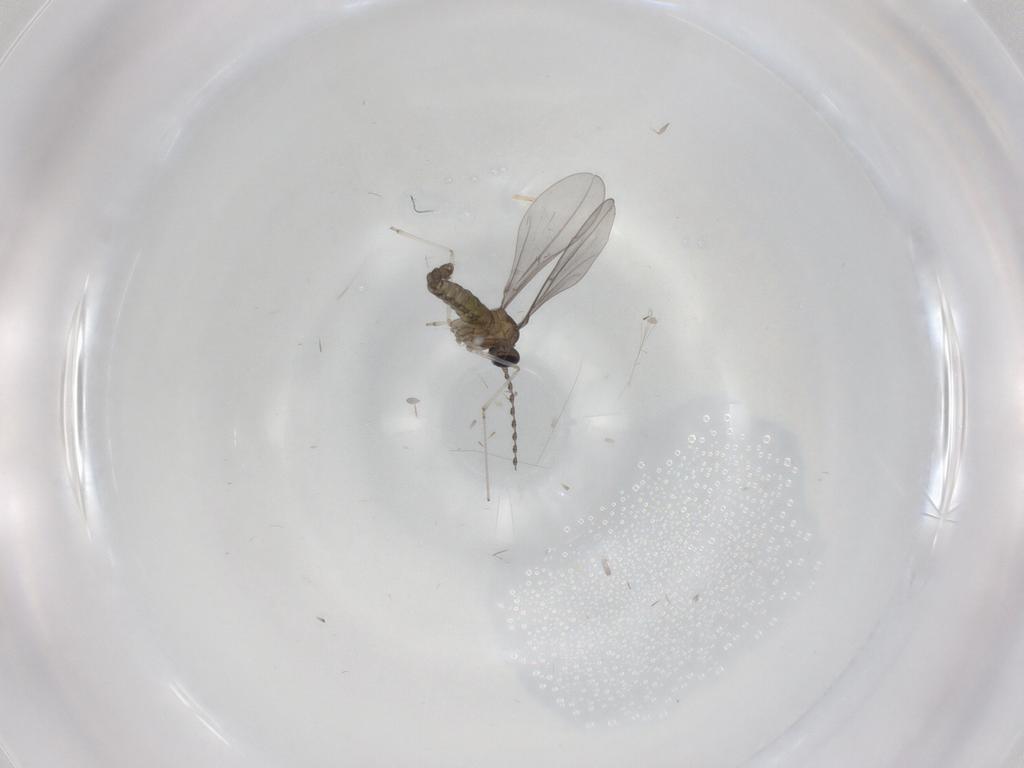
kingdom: Animalia
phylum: Arthropoda
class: Insecta
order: Diptera
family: Cecidomyiidae
